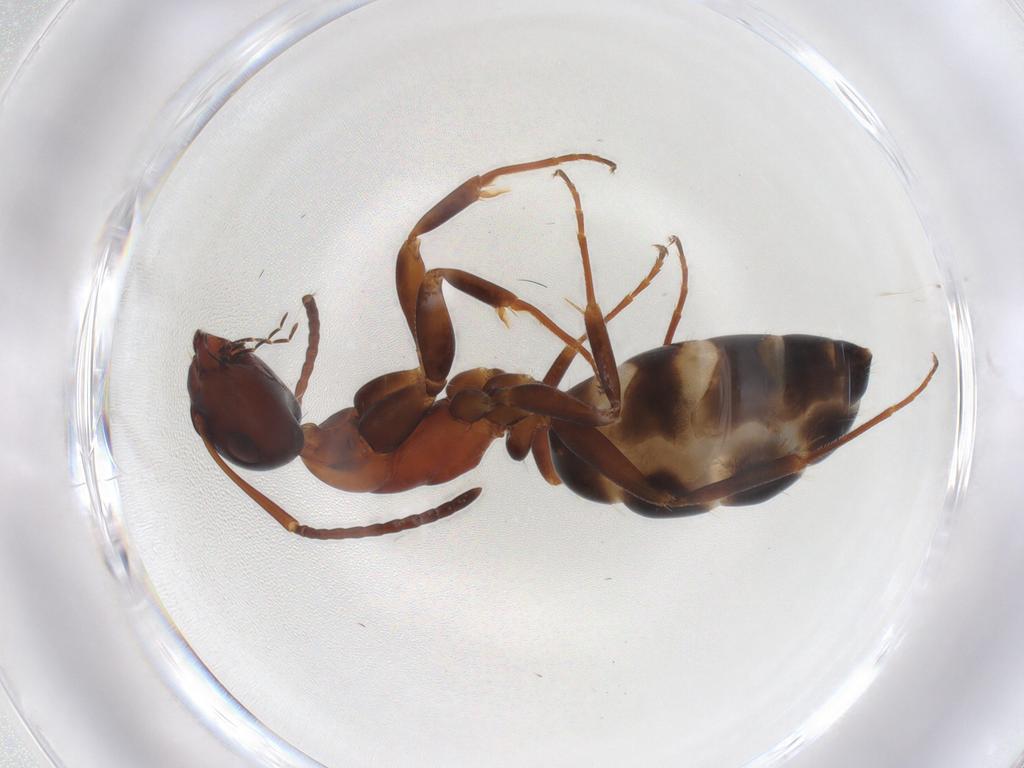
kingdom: Animalia
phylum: Arthropoda
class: Insecta
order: Hymenoptera
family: Formicidae
